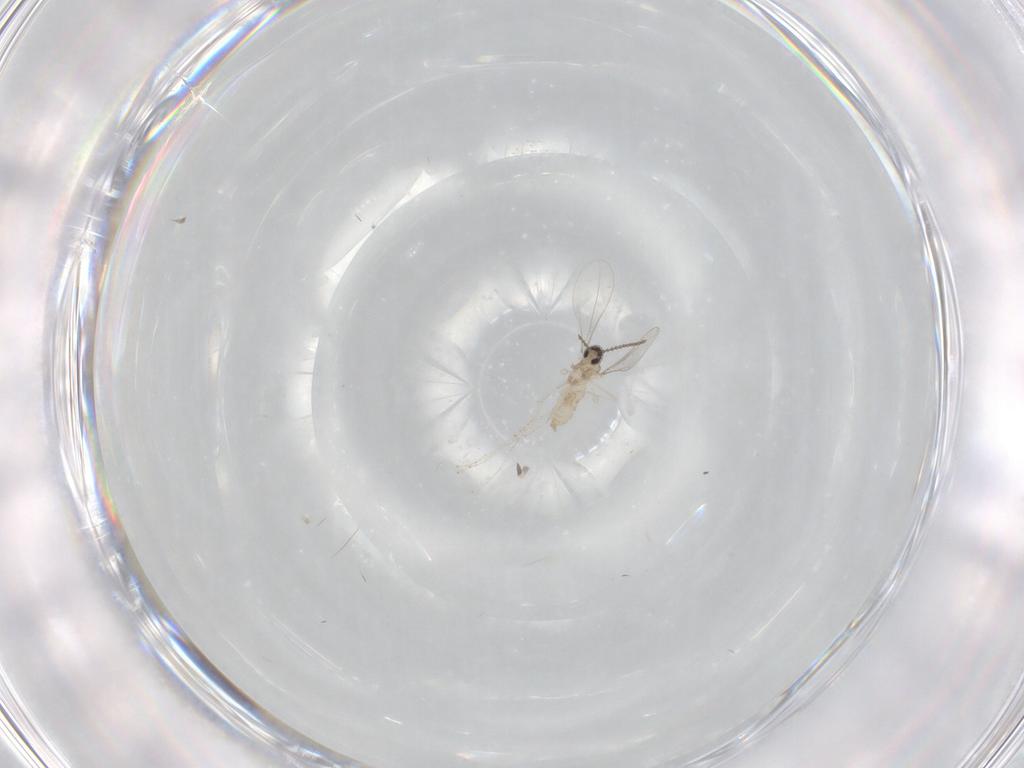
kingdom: Animalia
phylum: Arthropoda
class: Insecta
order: Diptera
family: Cecidomyiidae
